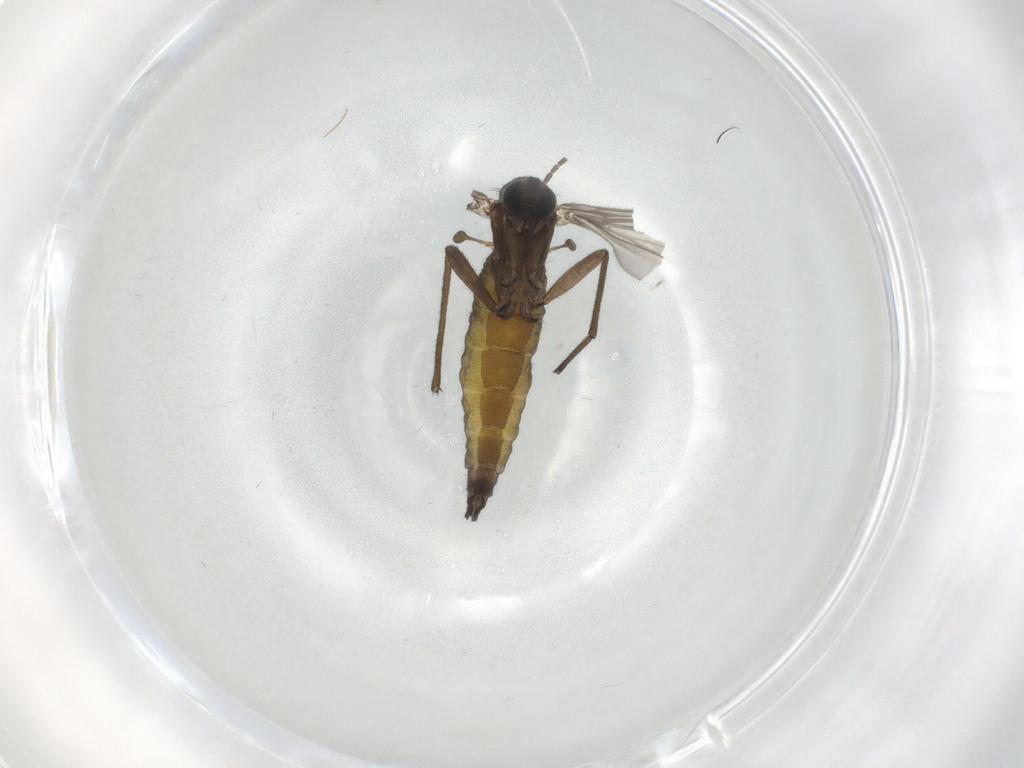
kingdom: Animalia
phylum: Arthropoda
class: Insecta
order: Diptera
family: Sciaridae
